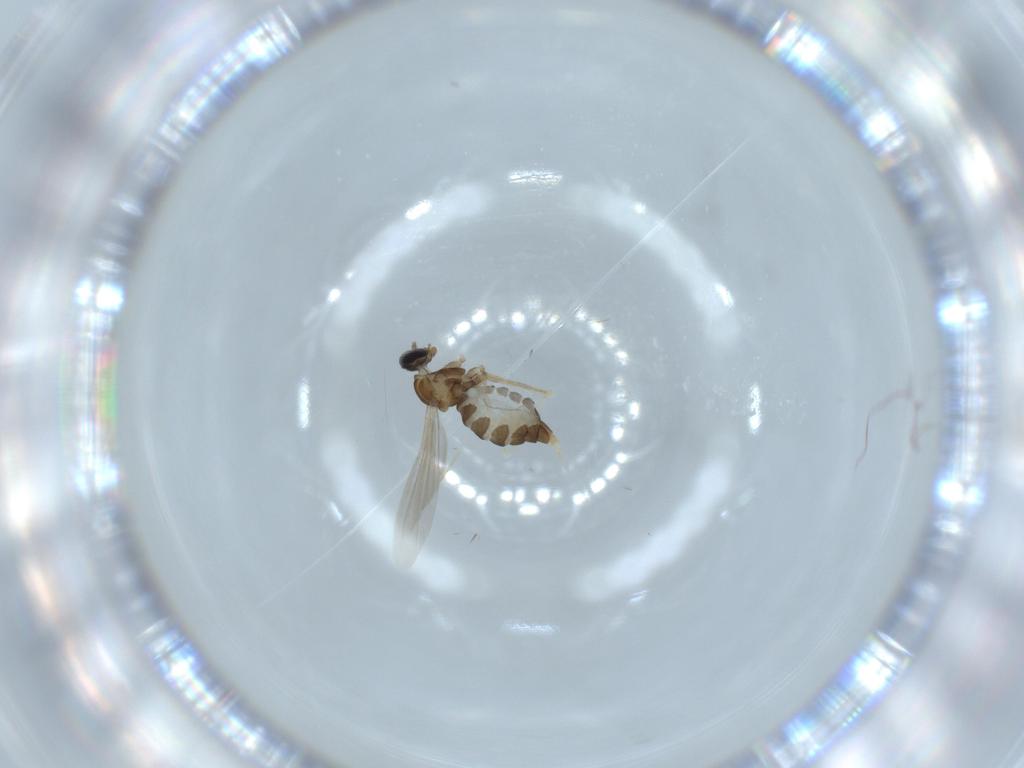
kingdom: Animalia
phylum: Arthropoda
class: Insecta
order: Diptera
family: Cecidomyiidae
